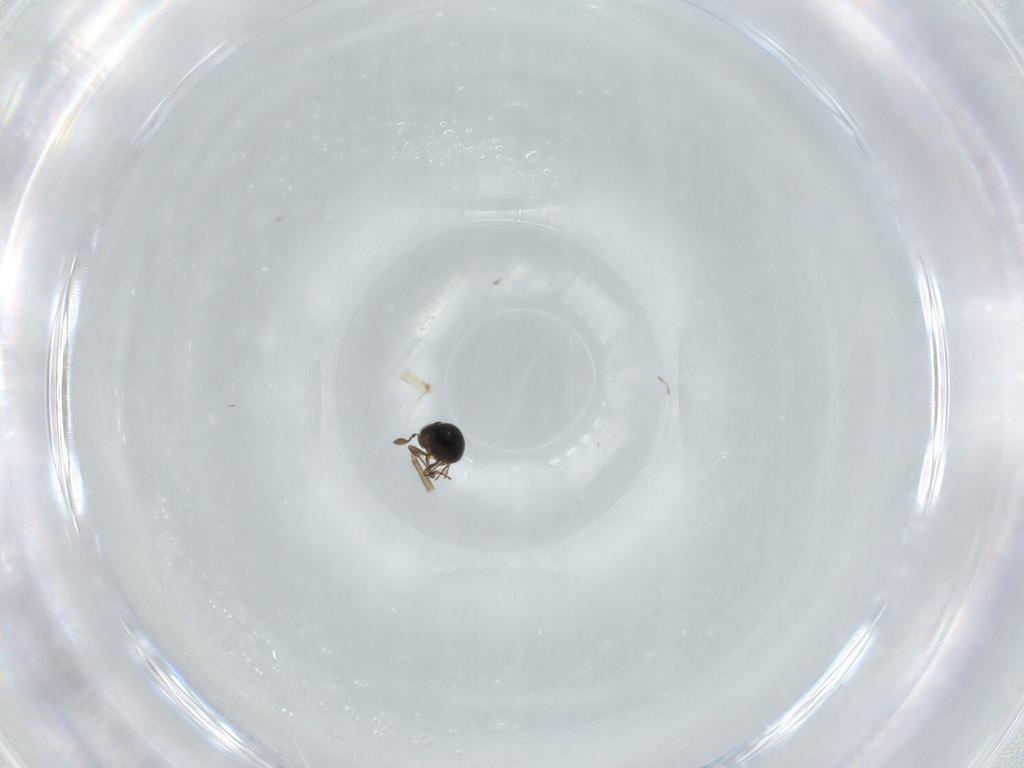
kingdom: Animalia
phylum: Arthropoda
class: Insecta
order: Hymenoptera
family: Scelionidae
